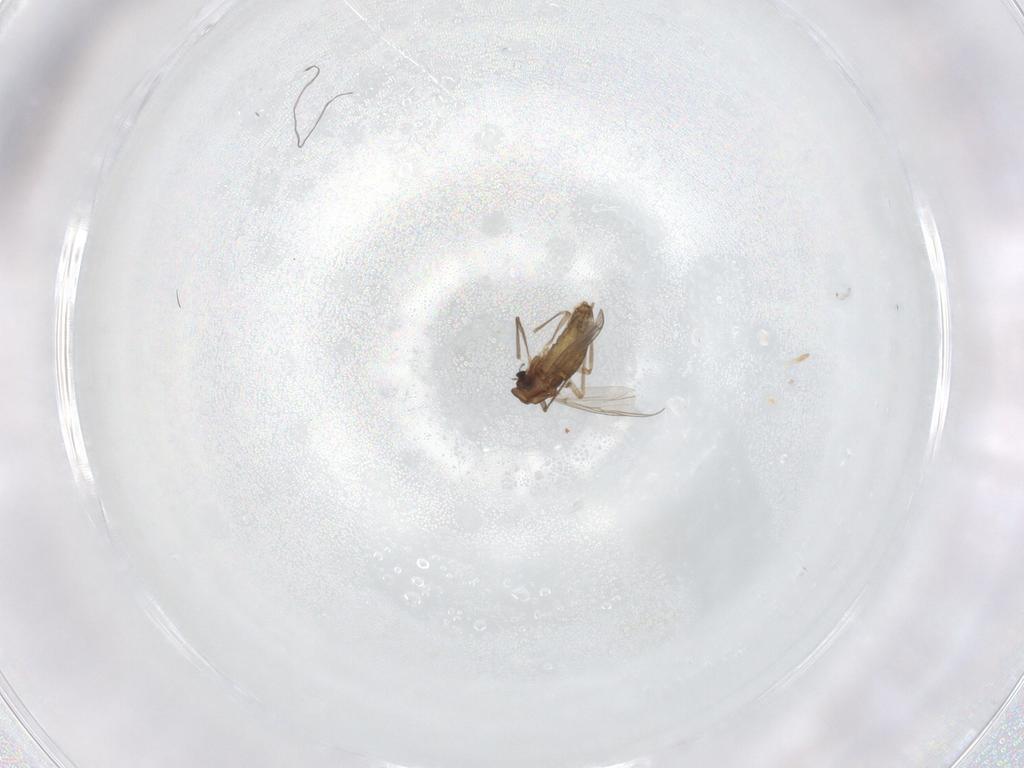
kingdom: Animalia
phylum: Arthropoda
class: Insecta
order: Diptera
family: Chironomidae
